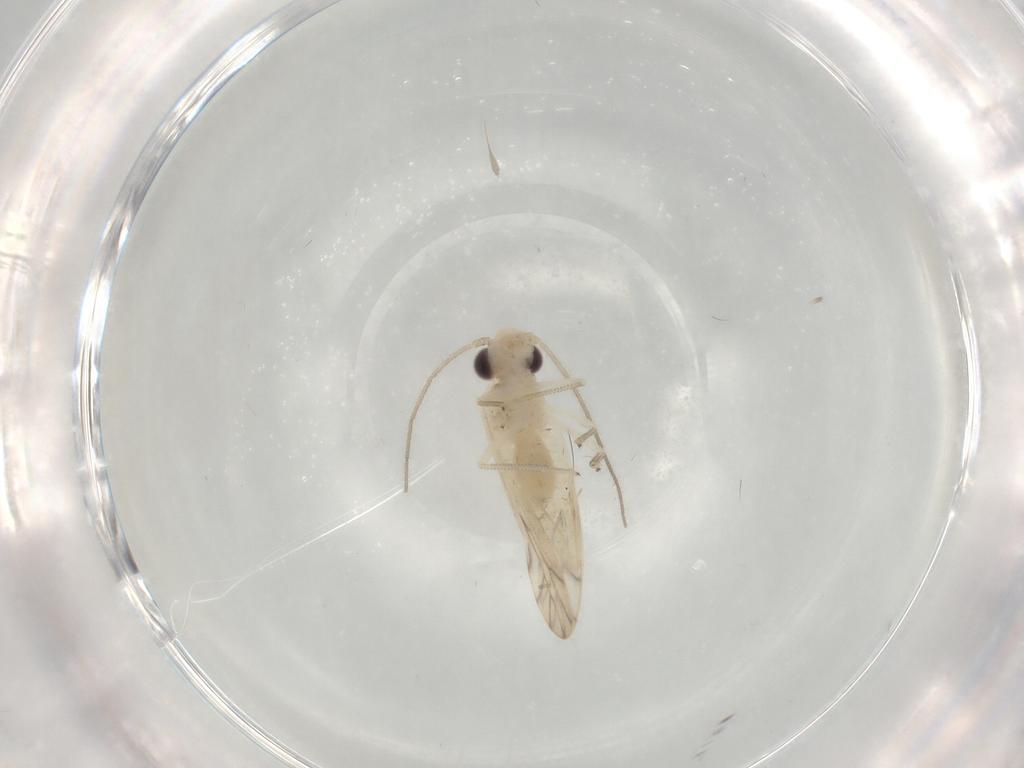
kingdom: Animalia
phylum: Arthropoda
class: Insecta
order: Psocodea
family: Caeciliusidae
